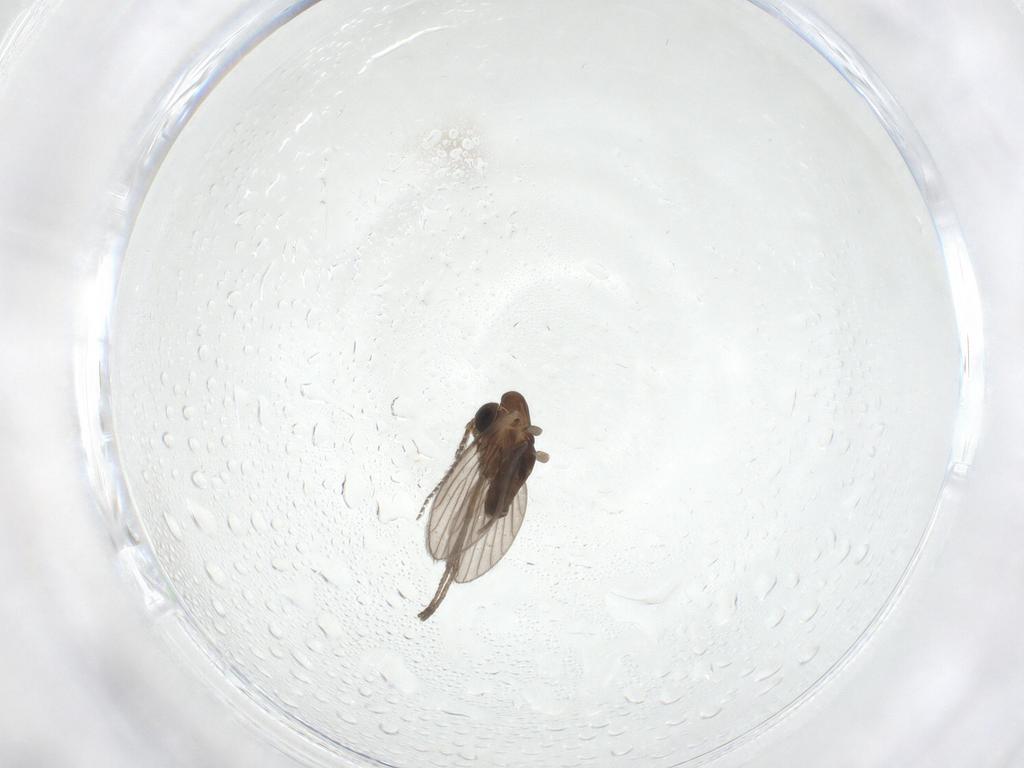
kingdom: Animalia
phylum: Arthropoda
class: Insecta
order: Diptera
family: Psychodidae
